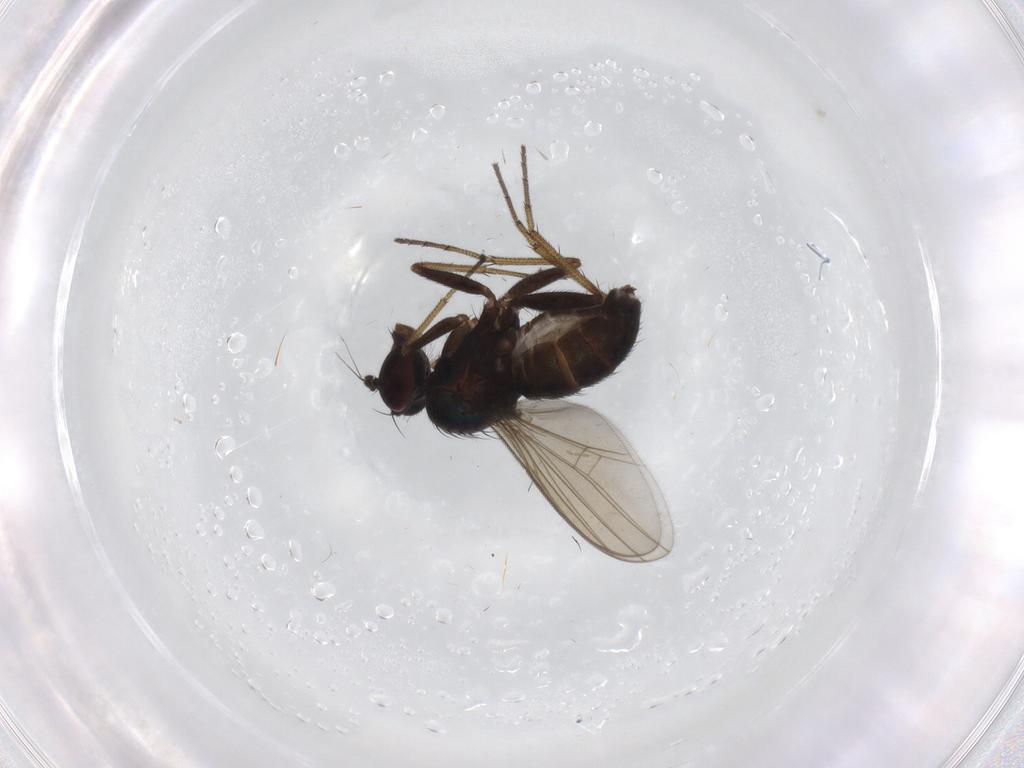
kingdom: Animalia
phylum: Arthropoda
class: Insecta
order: Diptera
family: Dolichopodidae
